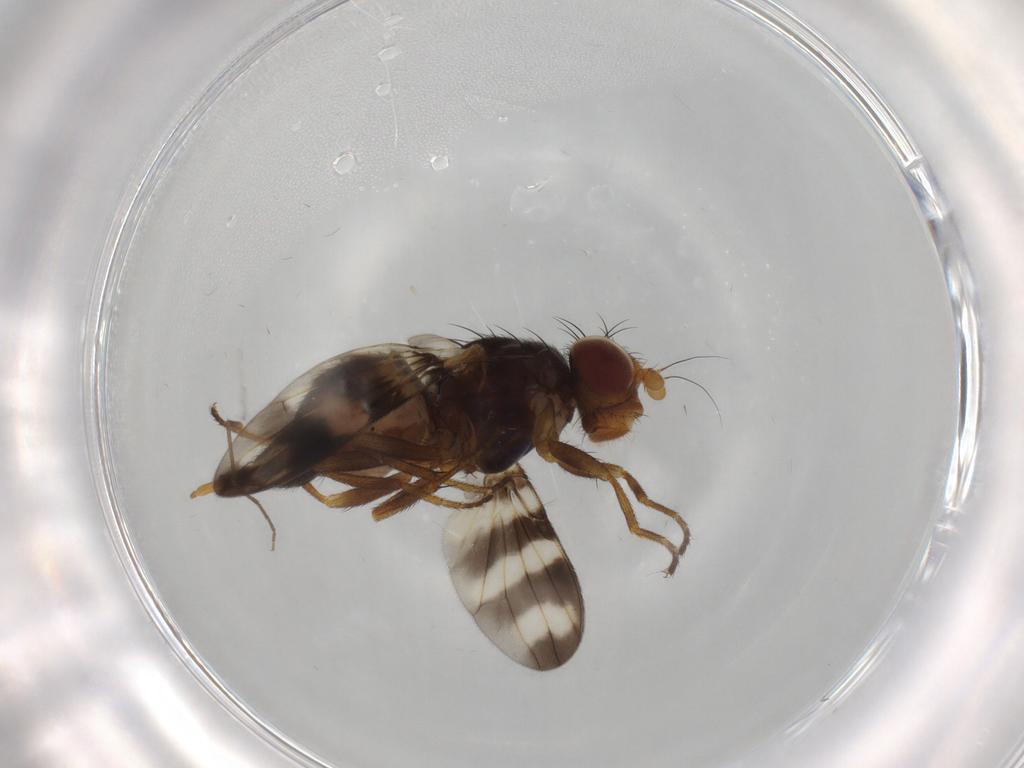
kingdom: Animalia
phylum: Arthropoda
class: Insecta
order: Diptera
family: Chironomidae
